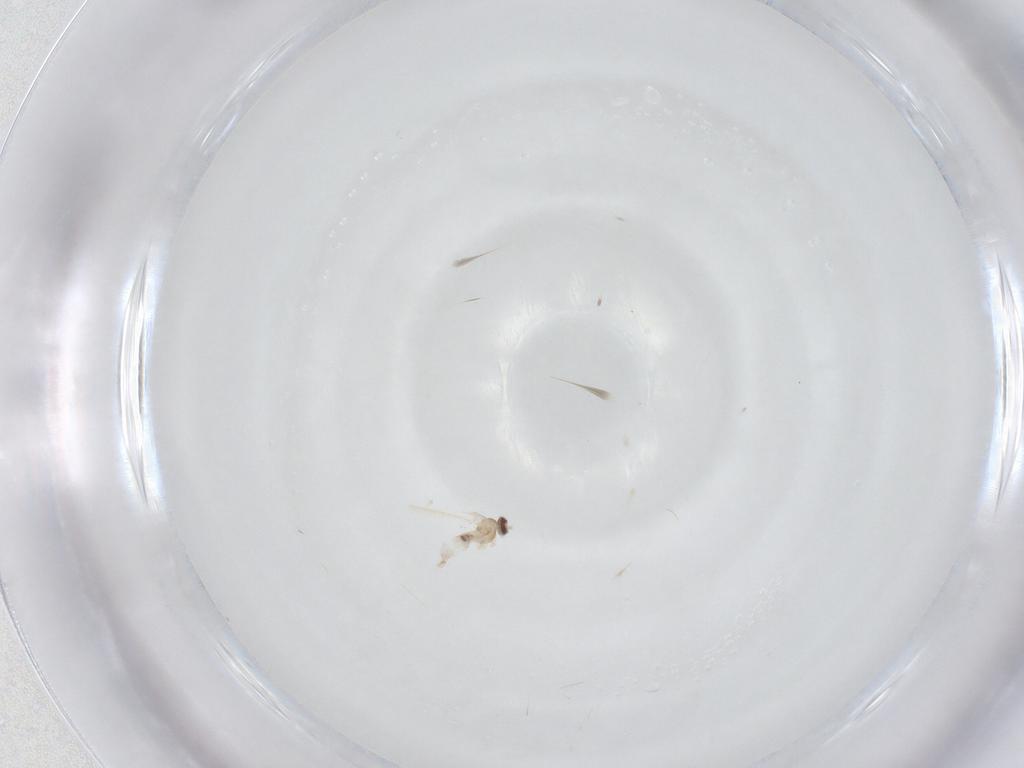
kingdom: Animalia
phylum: Arthropoda
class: Insecta
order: Diptera
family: Cecidomyiidae
